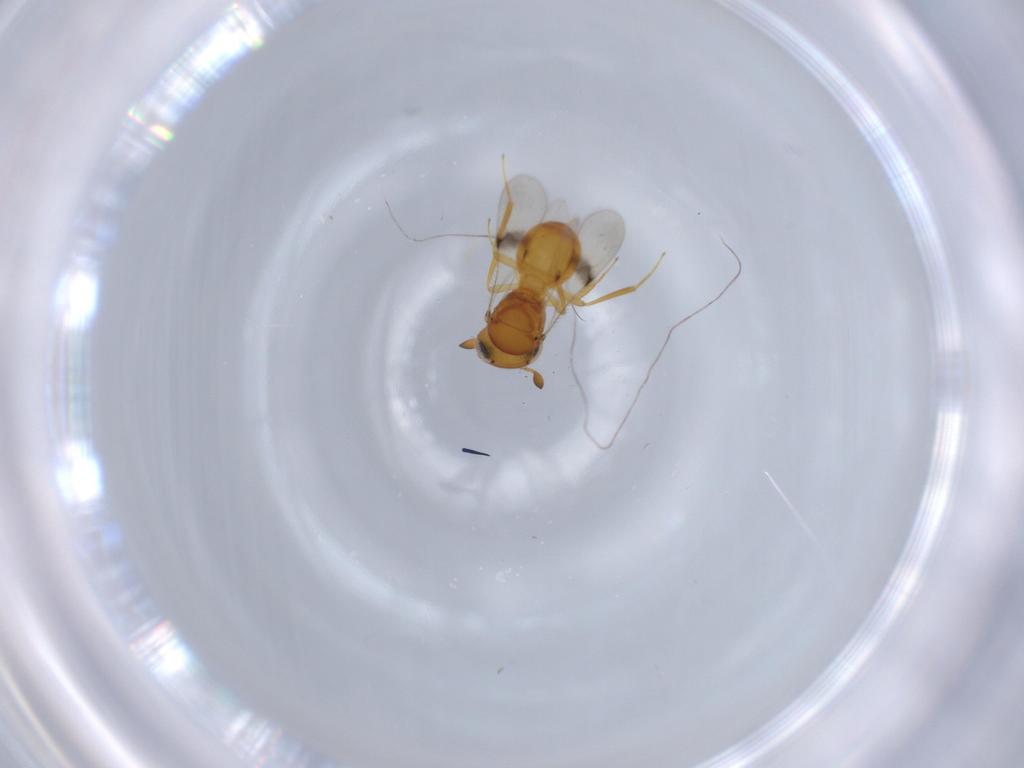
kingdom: Animalia
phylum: Arthropoda
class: Insecta
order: Hymenoptera
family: Scelionidae
